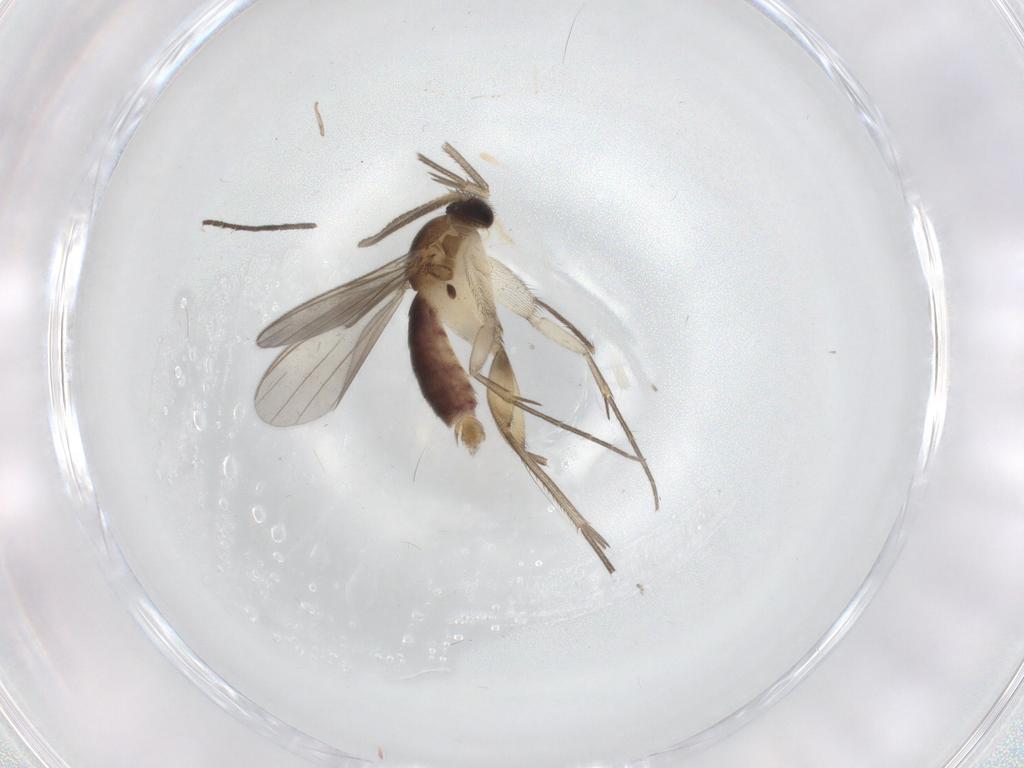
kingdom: Animalia
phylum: Arthropoda
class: Insecta
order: Diptera
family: Mycetophilidae
